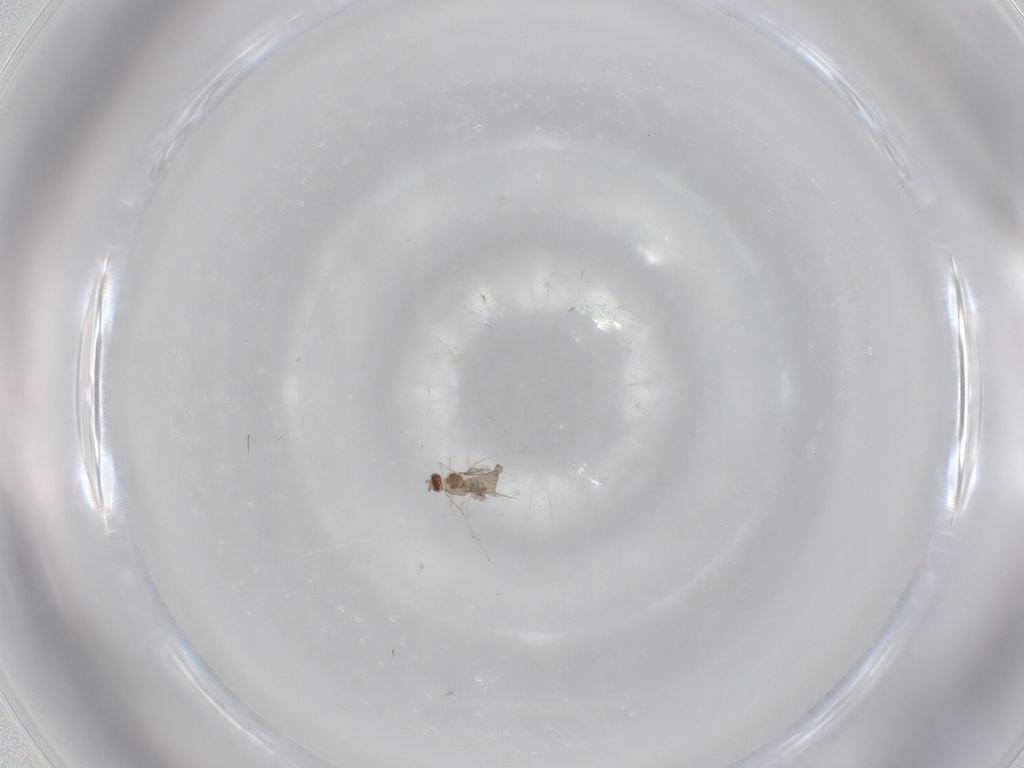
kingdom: Animalia
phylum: Arthropoda
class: Insecta
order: Diptera
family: Cecidomyiidae
